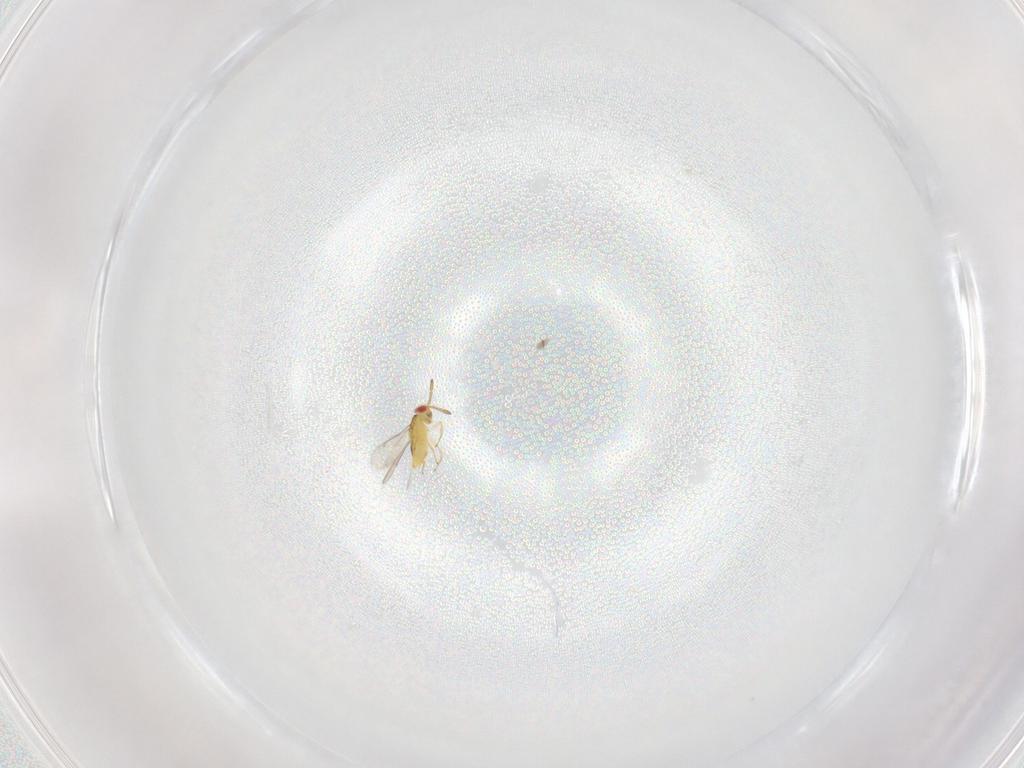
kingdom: Animalia
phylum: Arthropoda
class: Insecta
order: Hymenoptera
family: Aphelinidae
